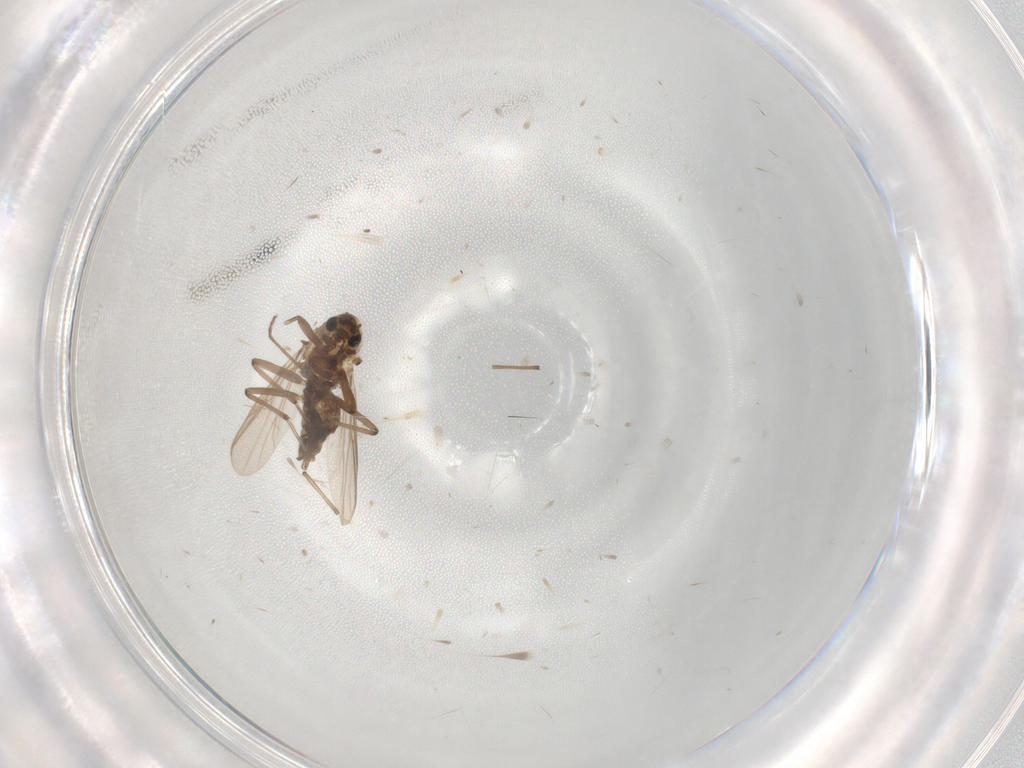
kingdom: Animalia
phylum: Arthropoda
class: Insecta
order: Diptera
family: Chironomidae
